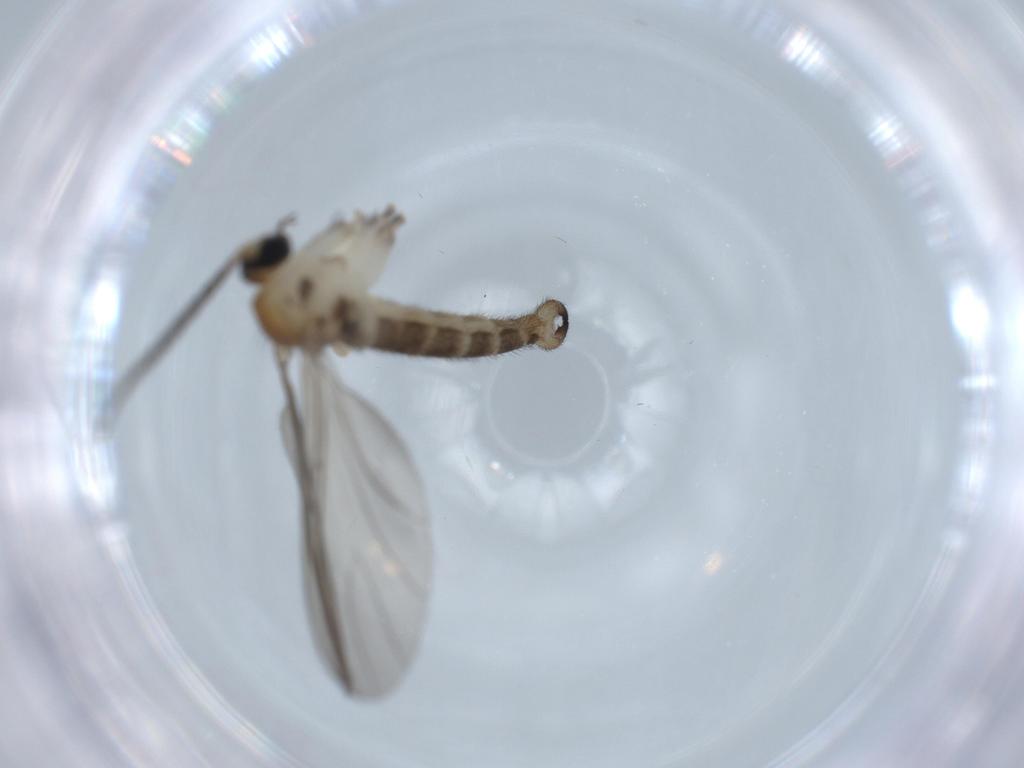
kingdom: Animalia
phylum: Arthropoda
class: Insecta
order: Diptera
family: Sciaridae
